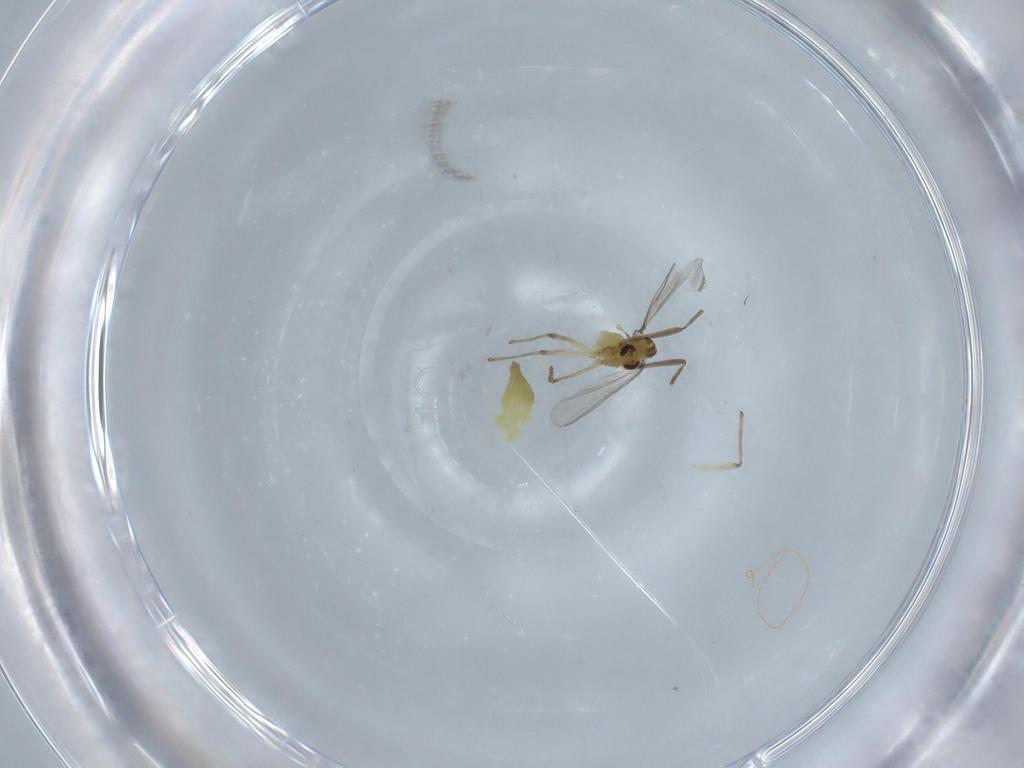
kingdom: Animalia
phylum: Arthropoda
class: Insecta
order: Diptera
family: Chironomidae
